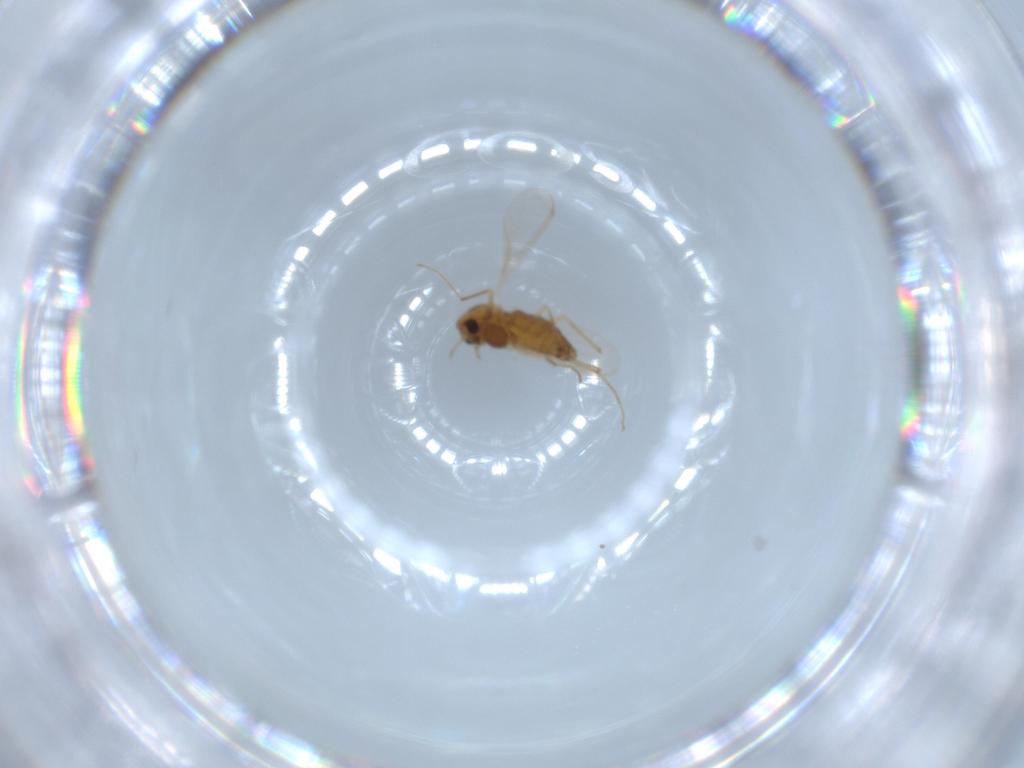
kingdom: Animalia
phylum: Arthropoda
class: Insecta
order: Diptera
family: Chironomidae
